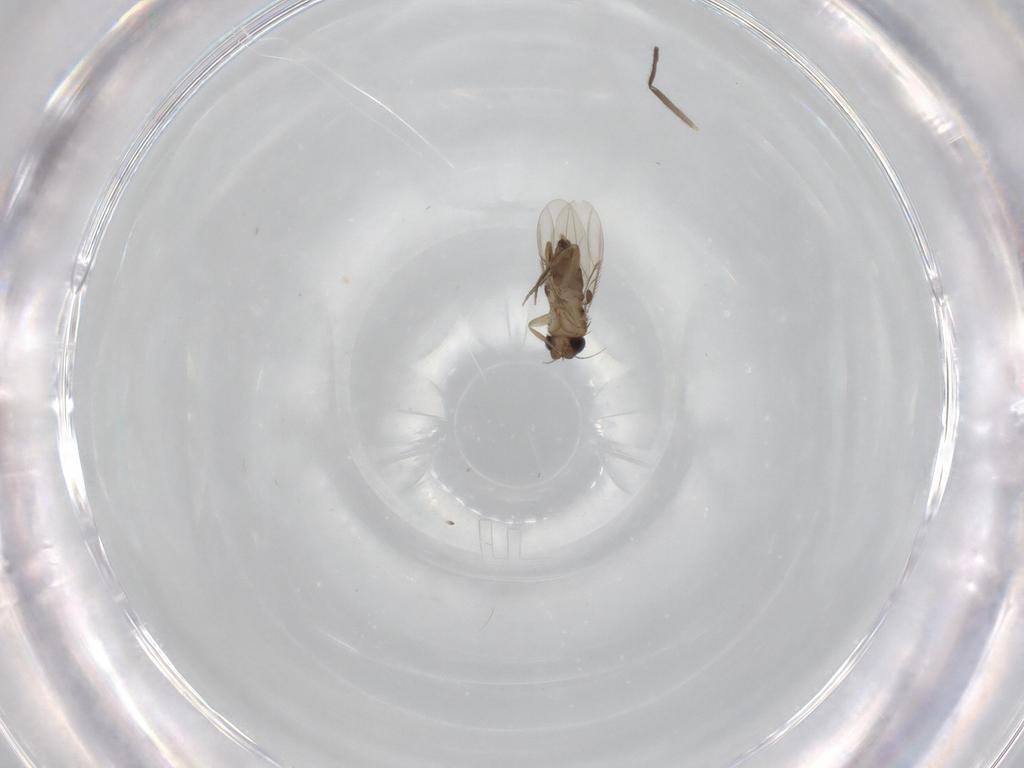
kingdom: Animalia
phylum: Arthropoda
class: Insecta
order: Diptera
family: Phoridae
